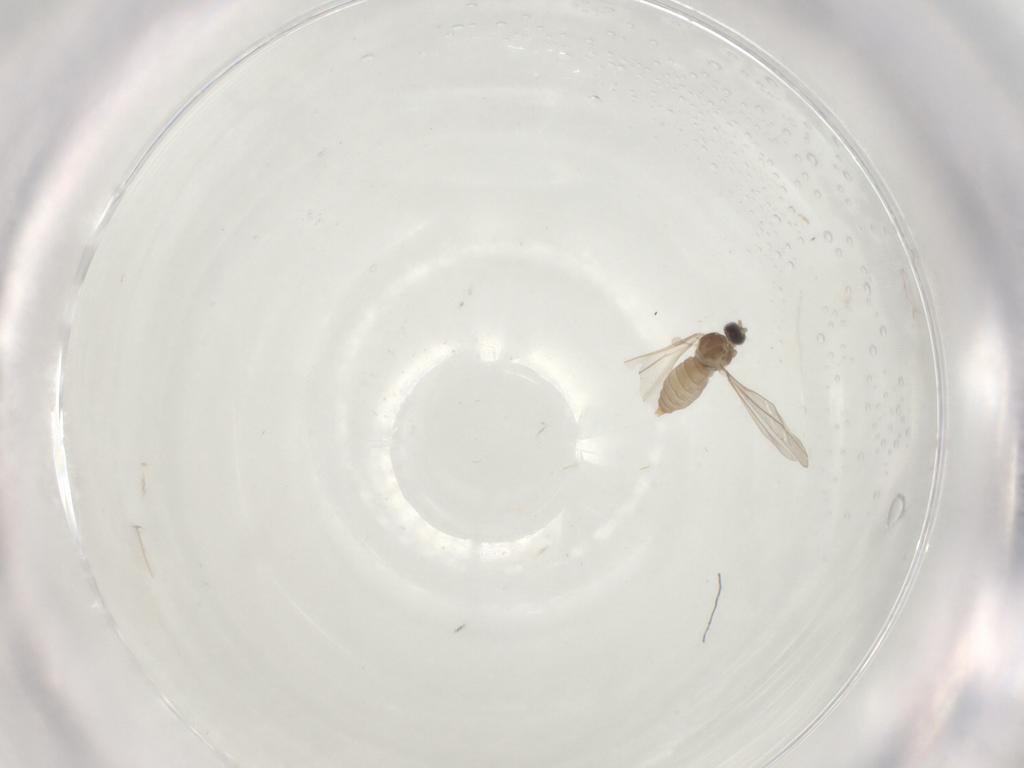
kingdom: Animalia
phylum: Arthropoda
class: Insecta
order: Diptera
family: Cecidomyiidae
